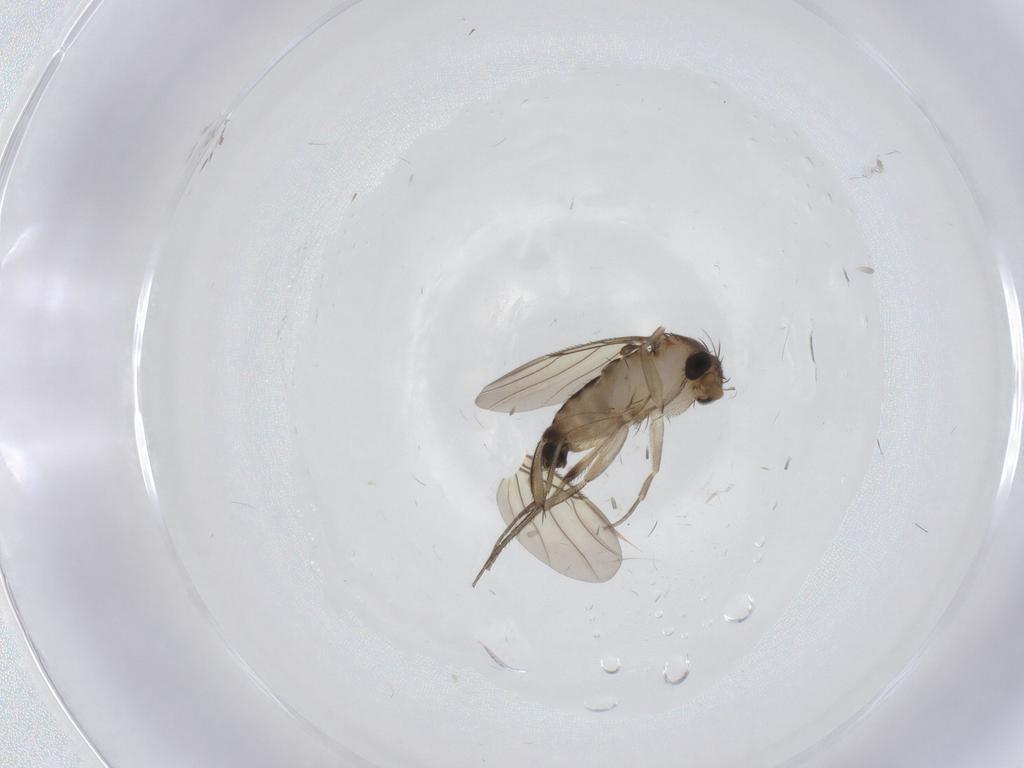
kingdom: Animalia
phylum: Arthropoda
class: Insecta
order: Diptera
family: Phoridae
